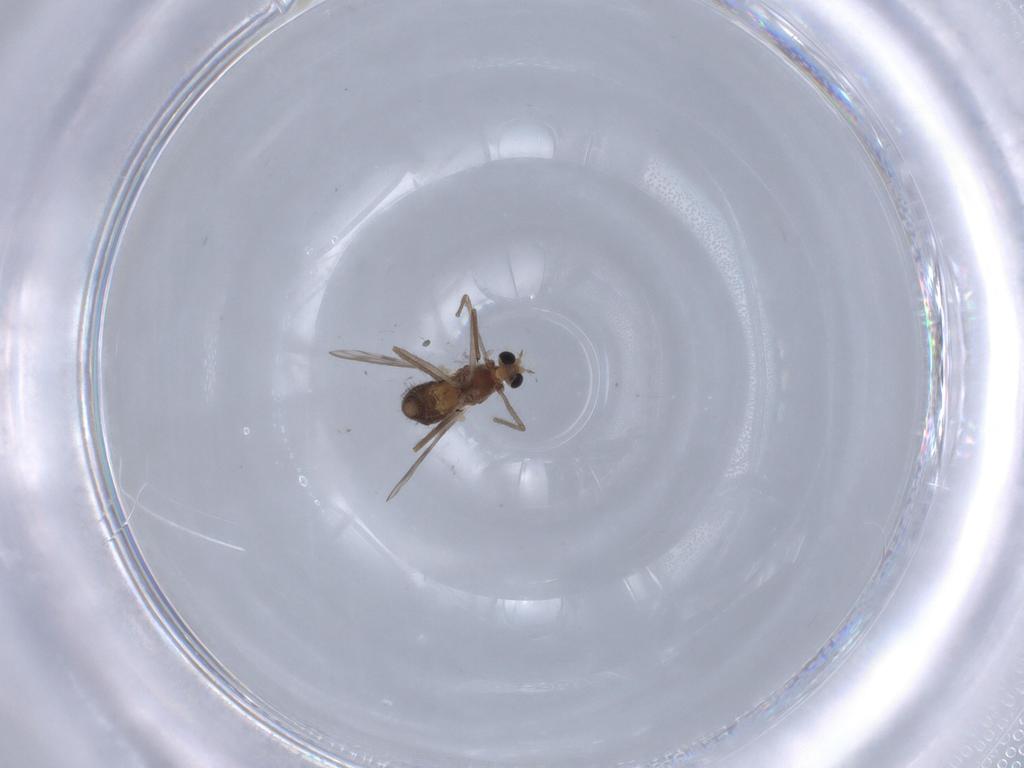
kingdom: Animalia
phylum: Arthropoda
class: Insecta
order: Diptera
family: Chironomidae
